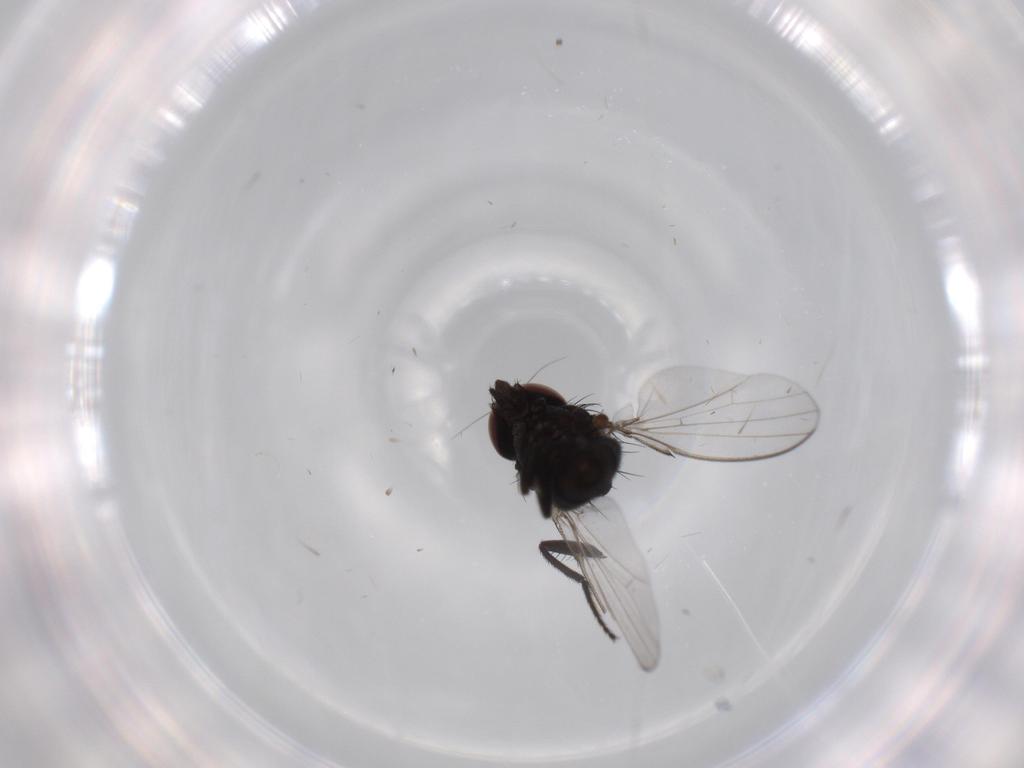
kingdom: Animalia
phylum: Arthropoda
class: Insecta
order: Diptera
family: Milichiidae
